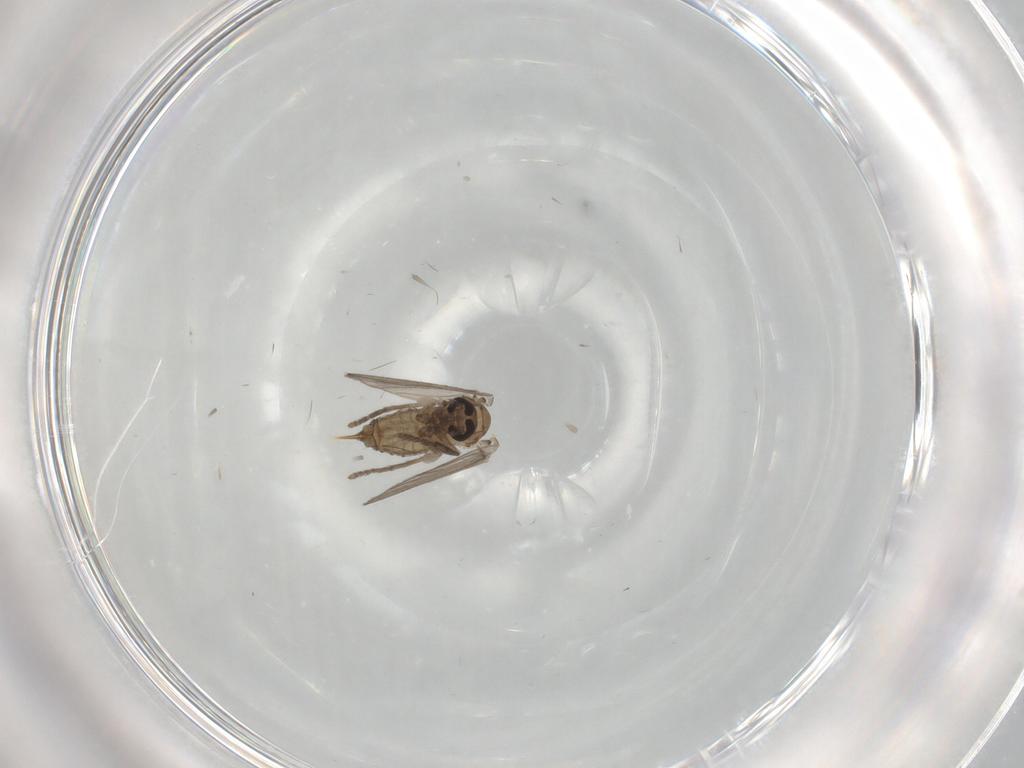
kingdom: Animalia
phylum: Arthropoda
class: Insecta
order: Diptera
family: Psychodidae
